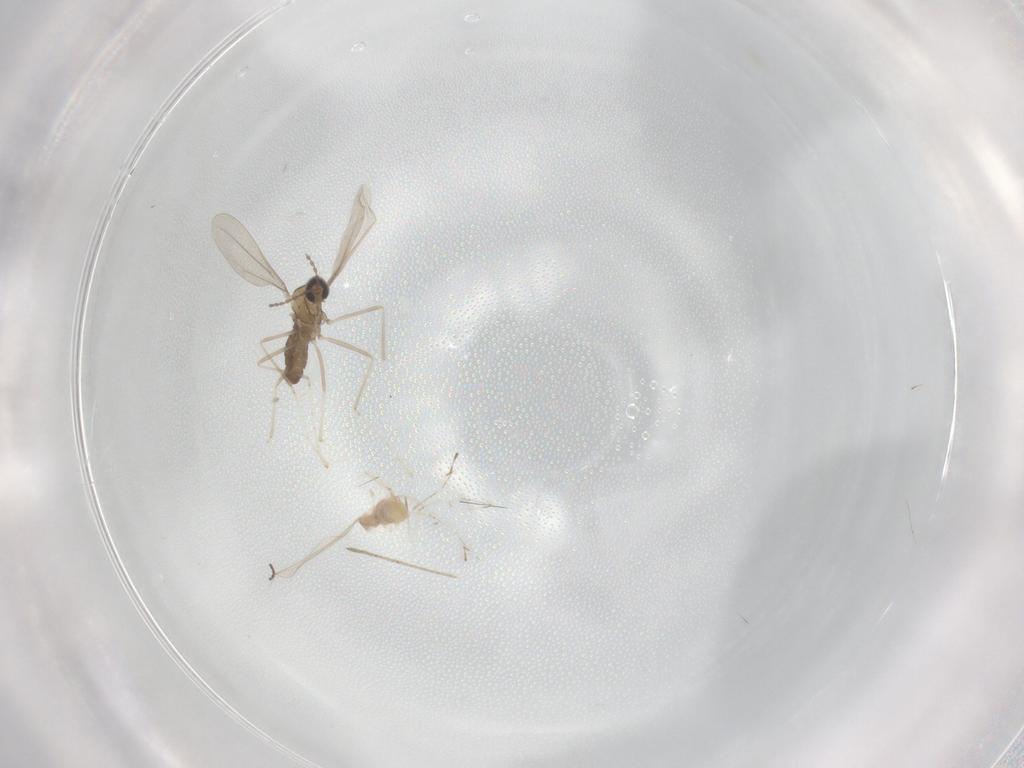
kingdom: Animalia
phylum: Arthropoda
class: Insecta
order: Diptera
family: Cecidomyiidae
